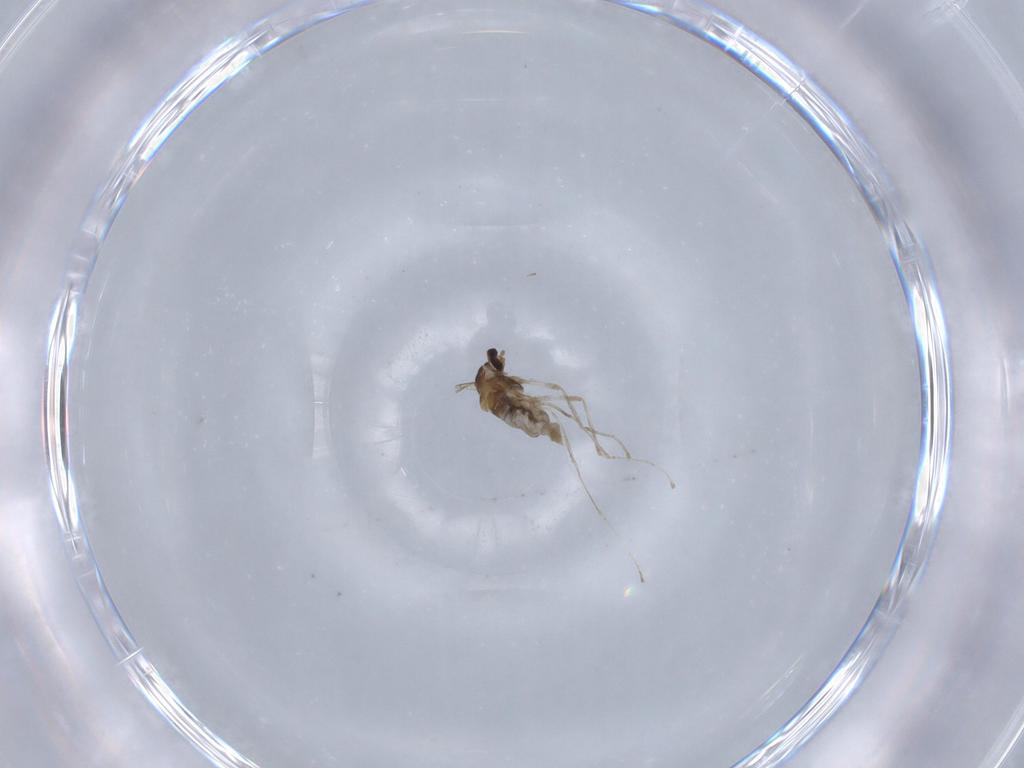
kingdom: Animalia
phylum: Arthropoda
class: Insecta
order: Diptera
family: Cecidomyiidae
